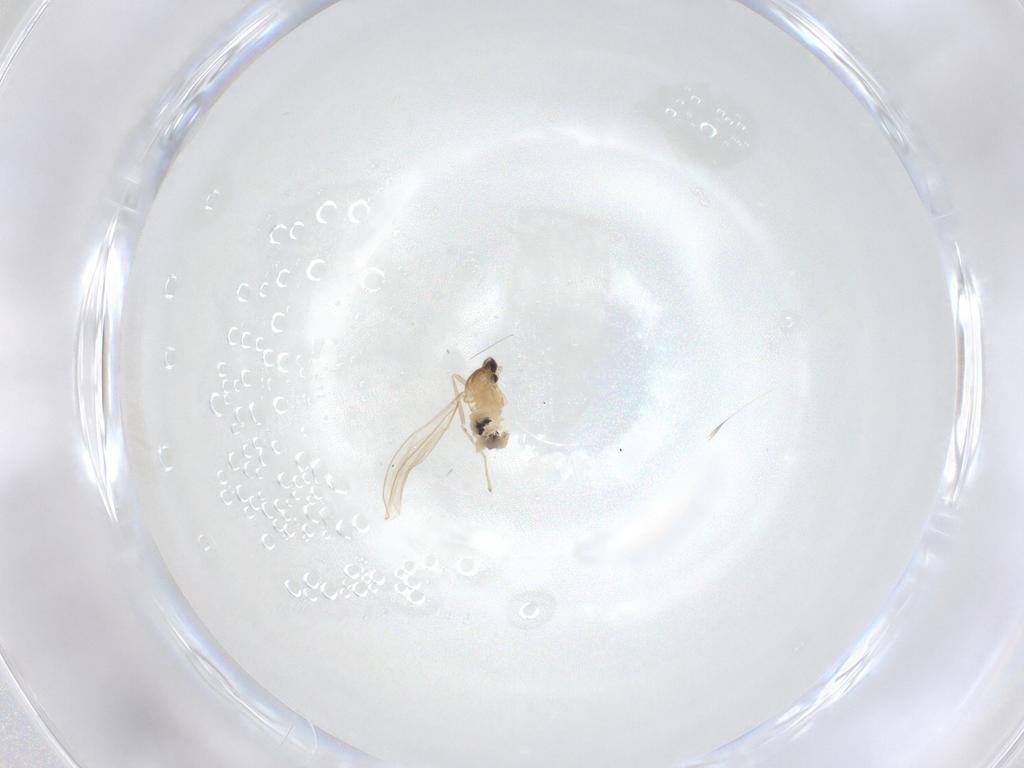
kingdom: Animalia
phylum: Arthropoda
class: Insecta
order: Diptera
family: Cecidomyiidae
